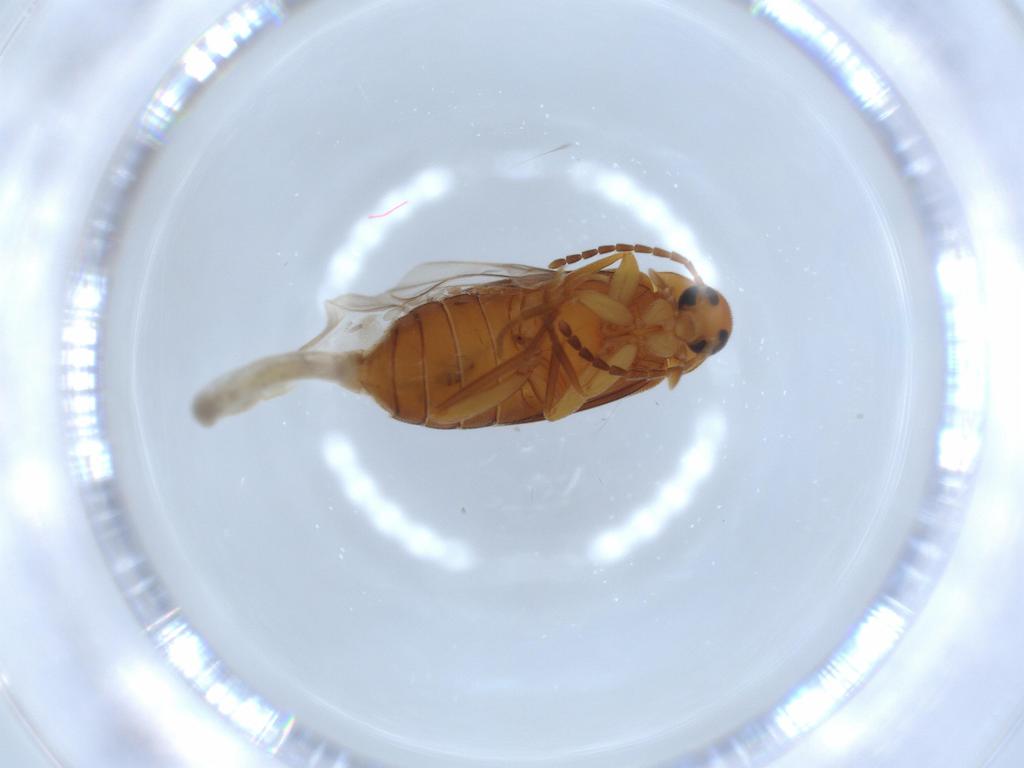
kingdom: Animalia
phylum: Arthropoda
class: Insecta
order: Coleoptera
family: Scraptiidae
